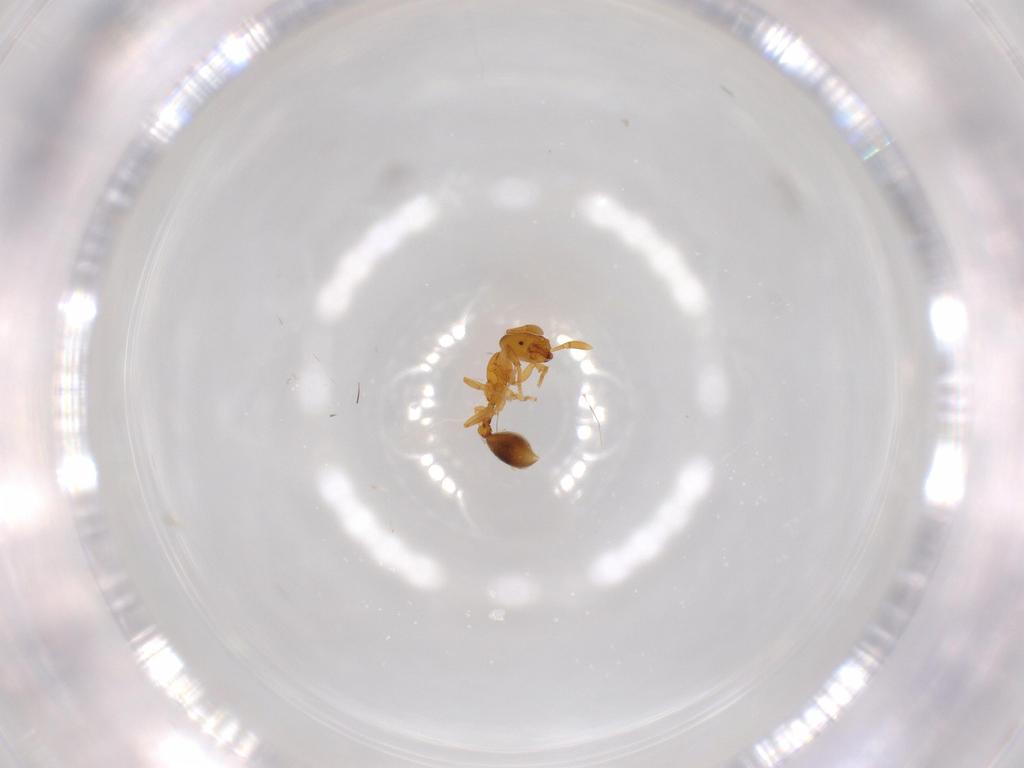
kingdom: Animalia
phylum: Arthropoda
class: Insecta
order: Hymenoptera
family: Formicidae
